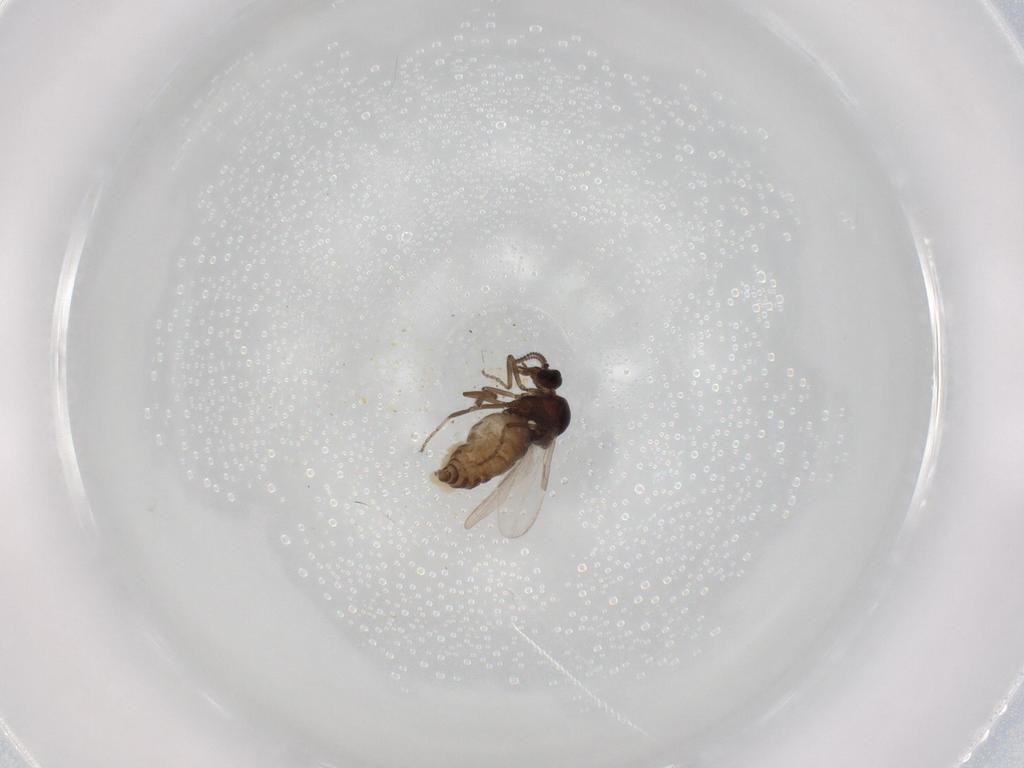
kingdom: Animalia
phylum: Arthropoda
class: Insecta
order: Diptera
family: Ceratopogonidae
